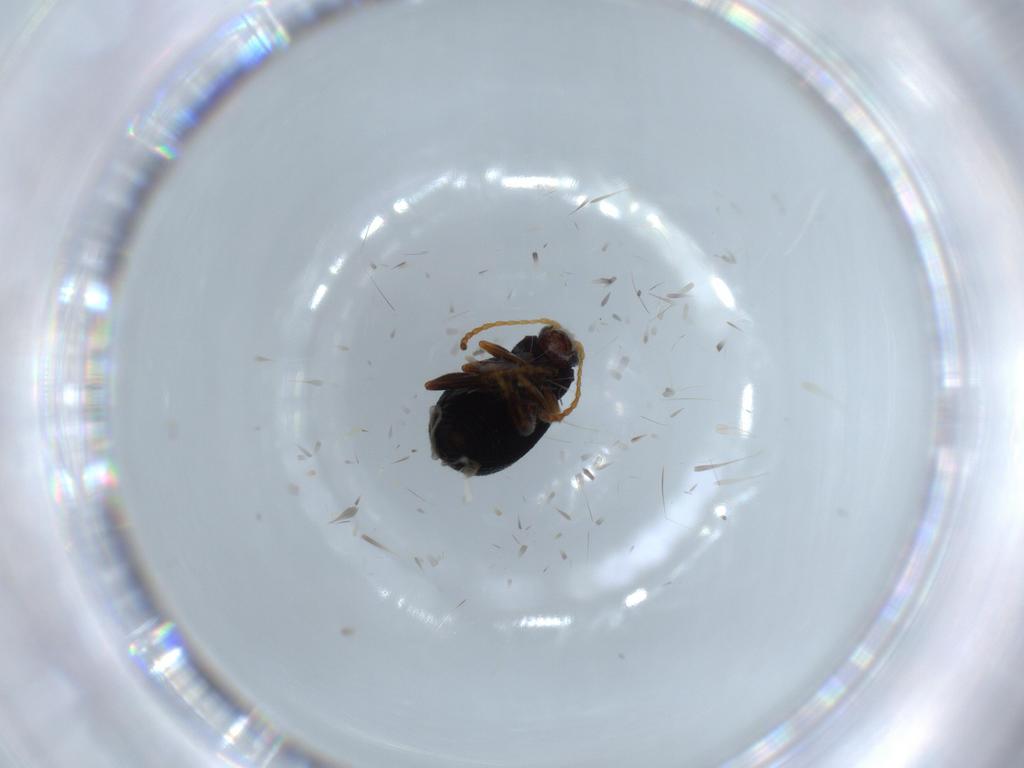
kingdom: Animalia
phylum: Arthropoda
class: Insecta
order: Coleoptera
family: Chrysomelidae
